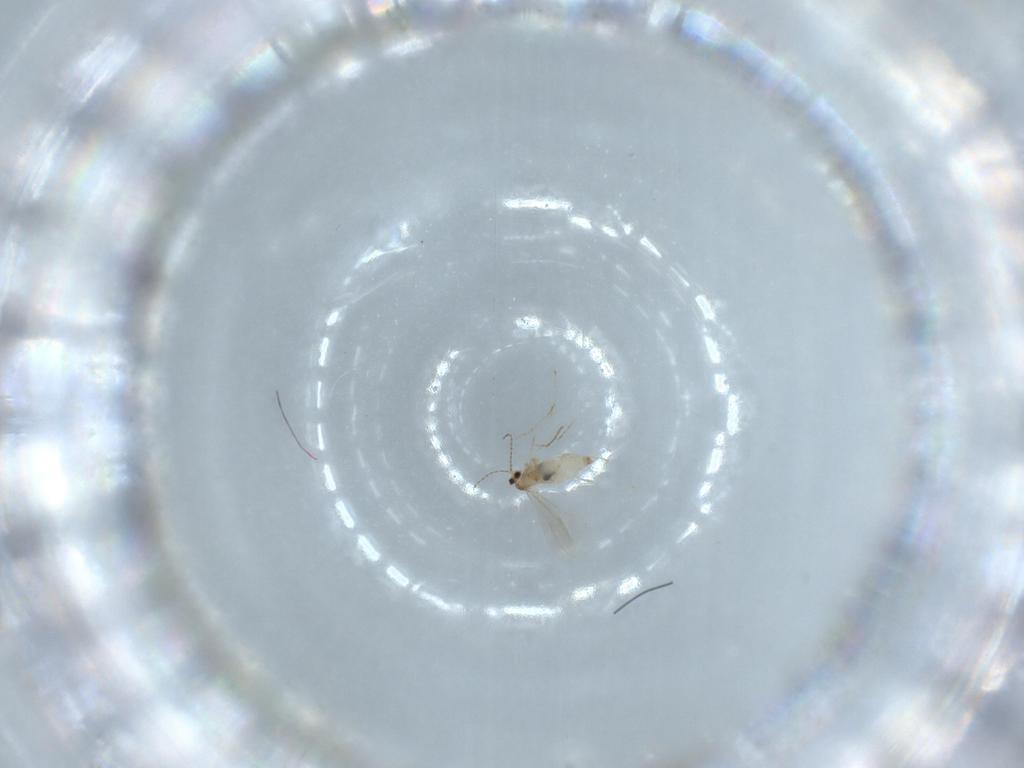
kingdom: Animalia
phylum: Arthropoda
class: Insecta
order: Diptera
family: Cecidomyiidae
